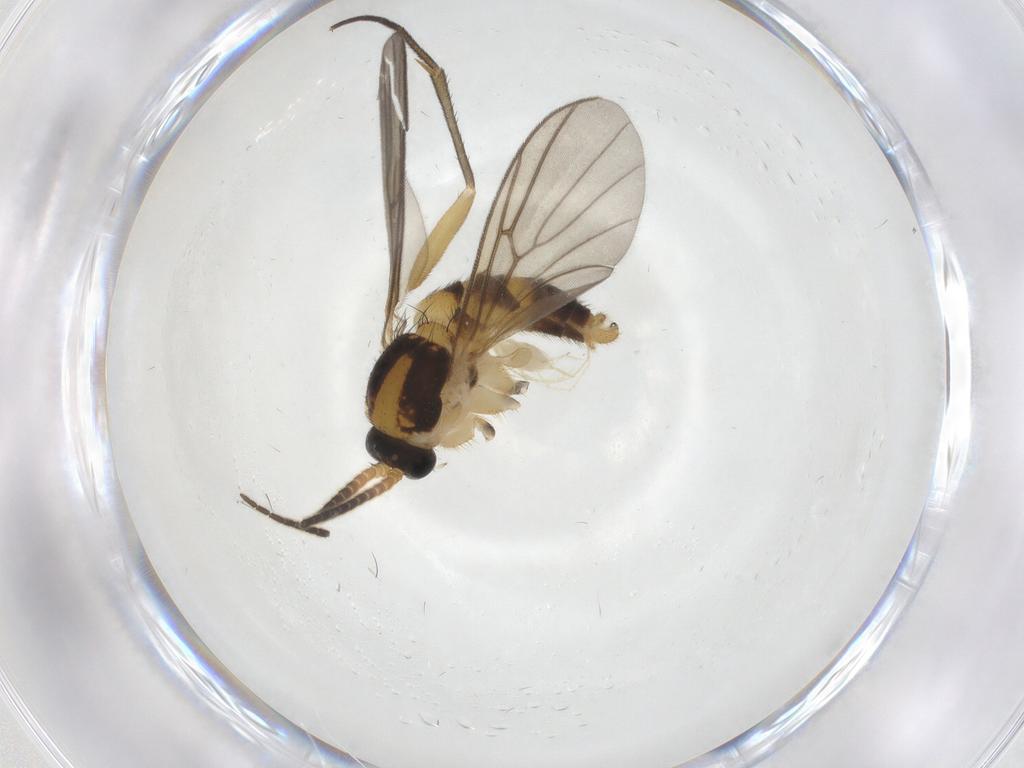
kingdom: Animalia
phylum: Arthropoda
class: Insecta
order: Diptera
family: Mycetophilidae
